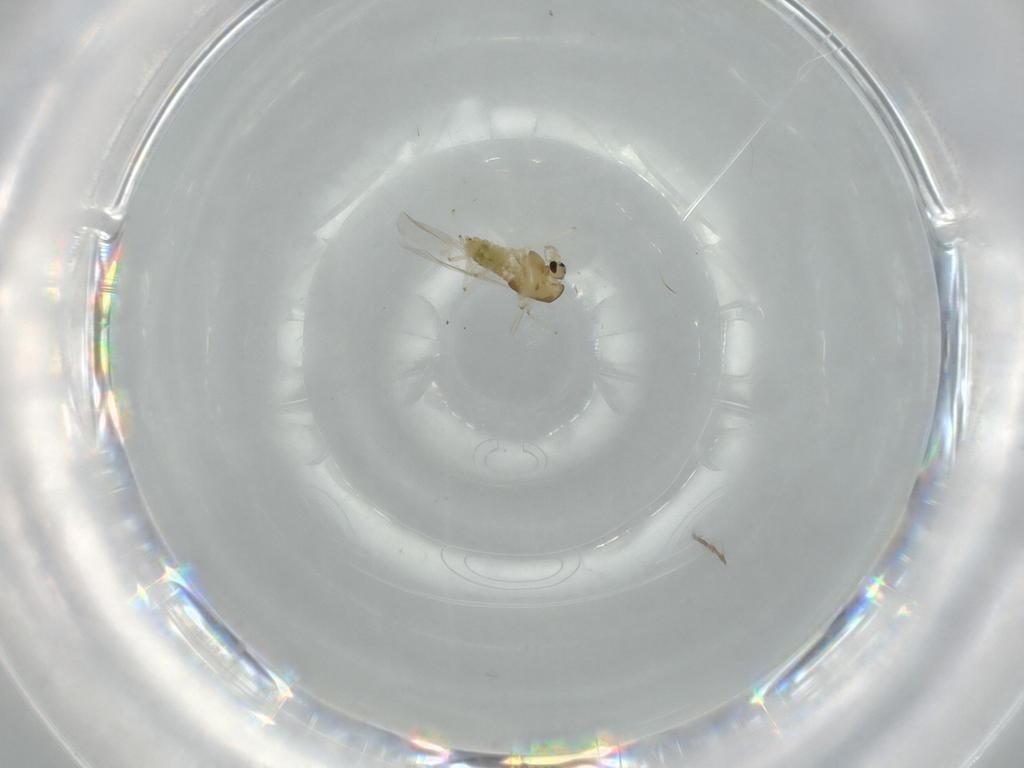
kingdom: Animalia
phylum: Arthropoda
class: Insecta
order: Diptera
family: Chironomidae
